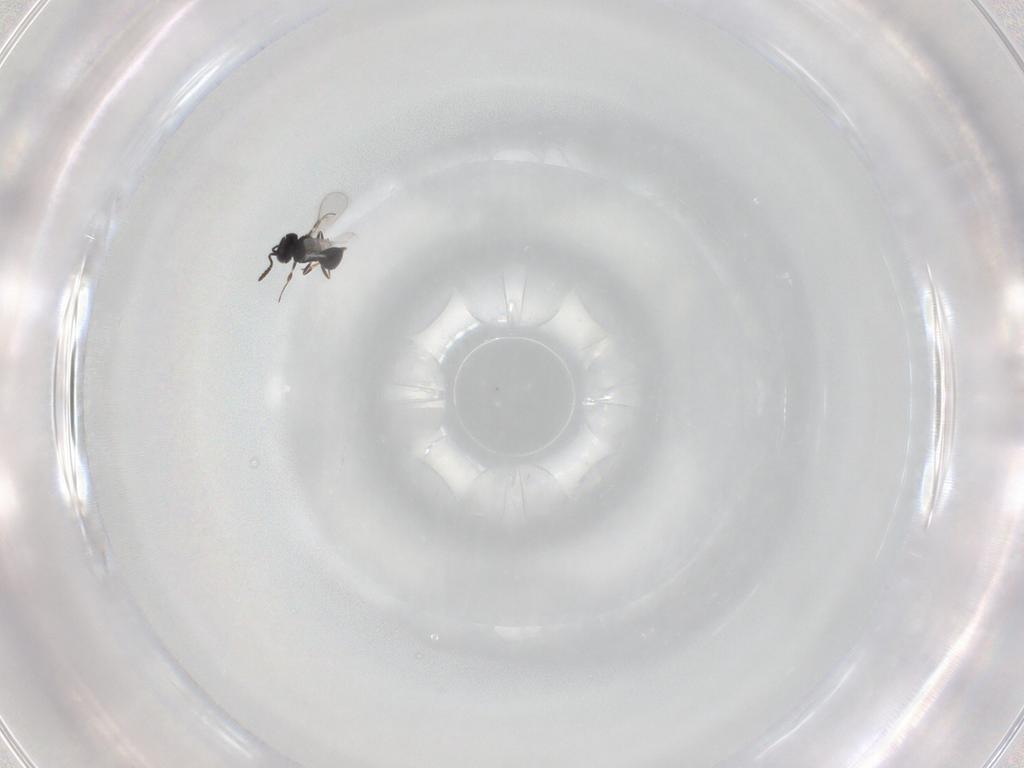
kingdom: Animalia
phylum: Arthropoda
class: Insecta
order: Hymenoptera
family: Scelionidae
